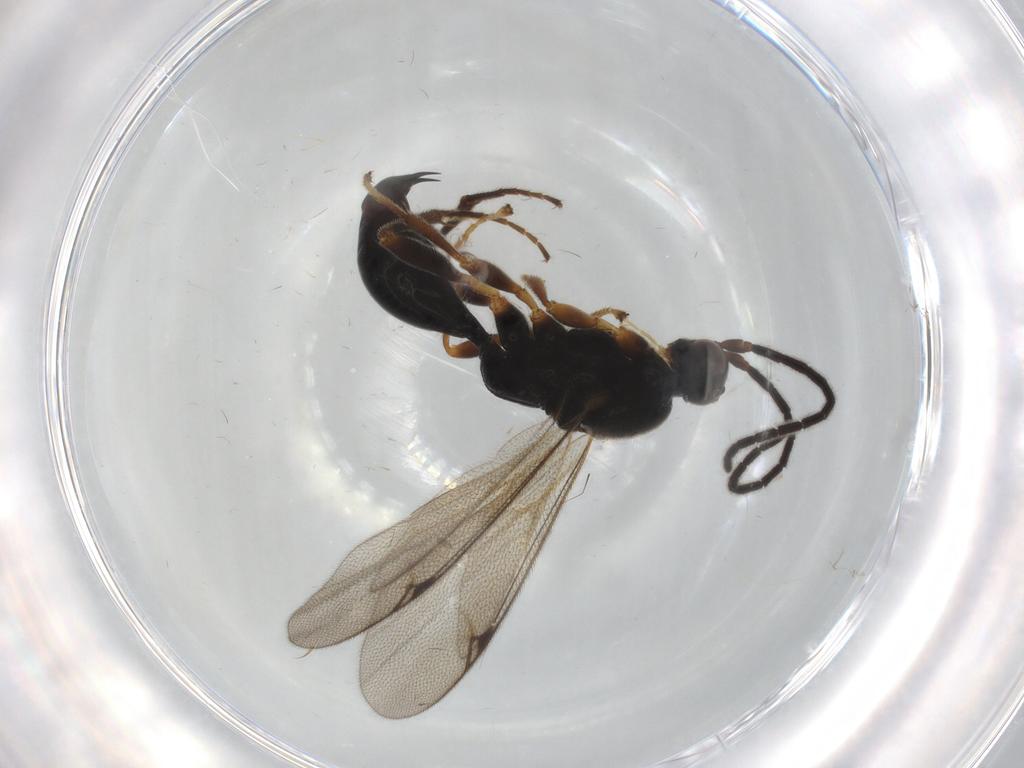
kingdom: Animalia
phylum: Arthropoda
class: Insecta
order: Hymenoptera
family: Proctotrupidae
